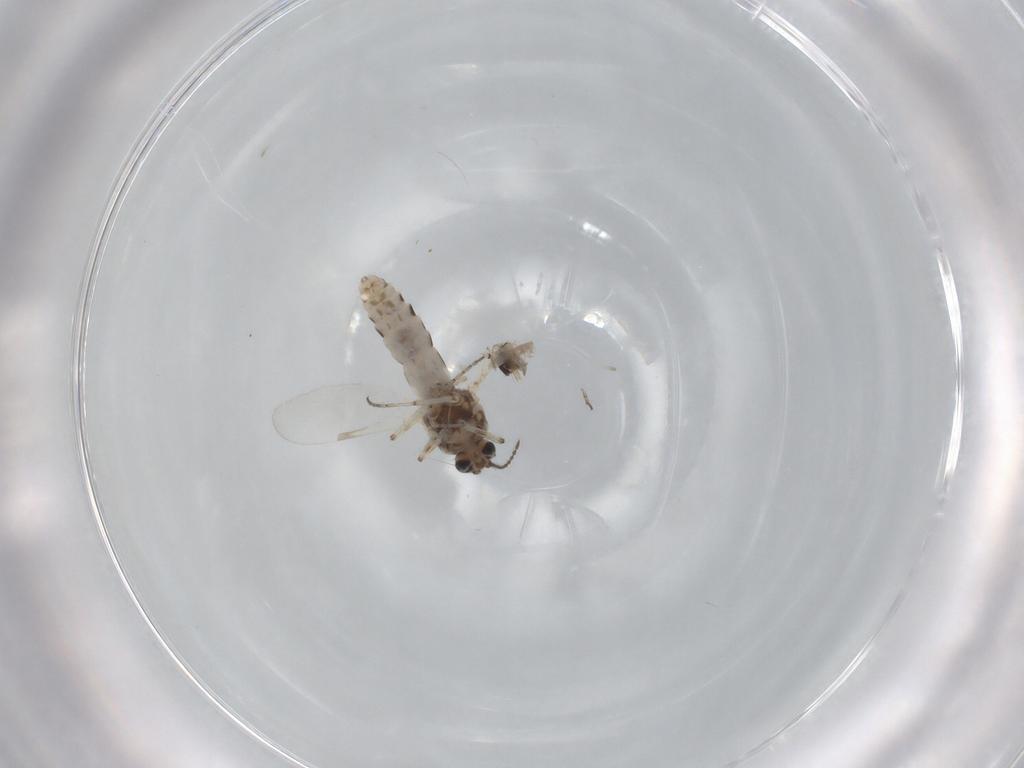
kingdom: Animalia
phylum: Arthropoda
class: Insecta
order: Diptera
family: Ceratopogonidae
